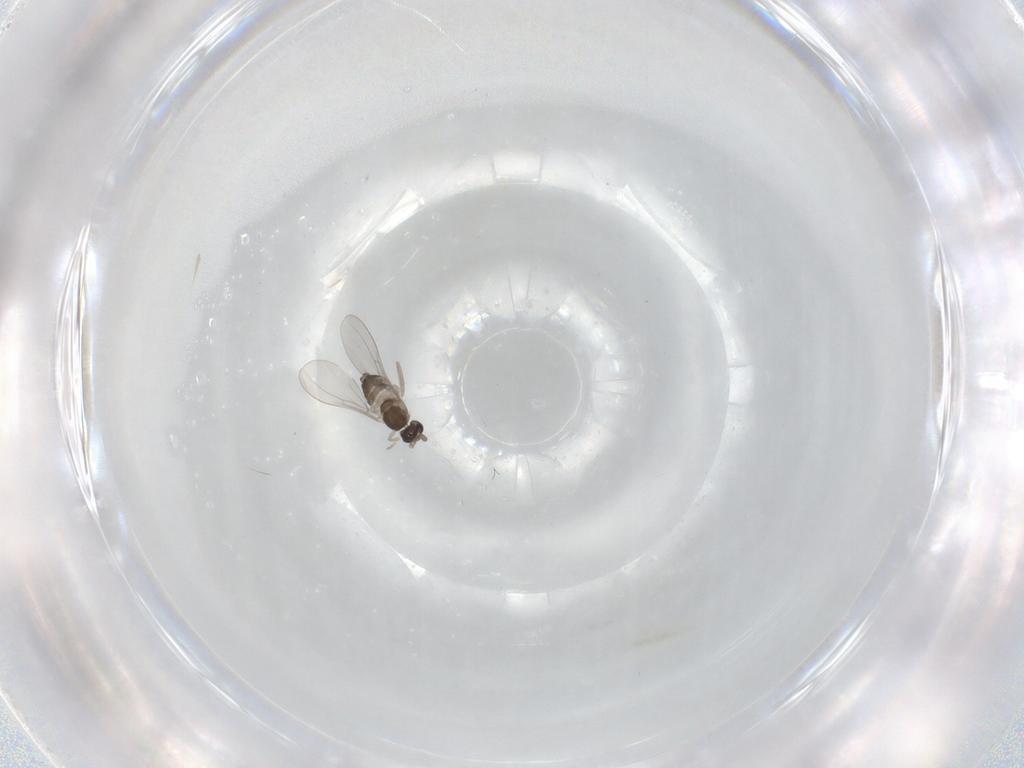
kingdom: Animalia
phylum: Arthropoda
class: Insecta
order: Diptera
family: Cecidomyiidae
